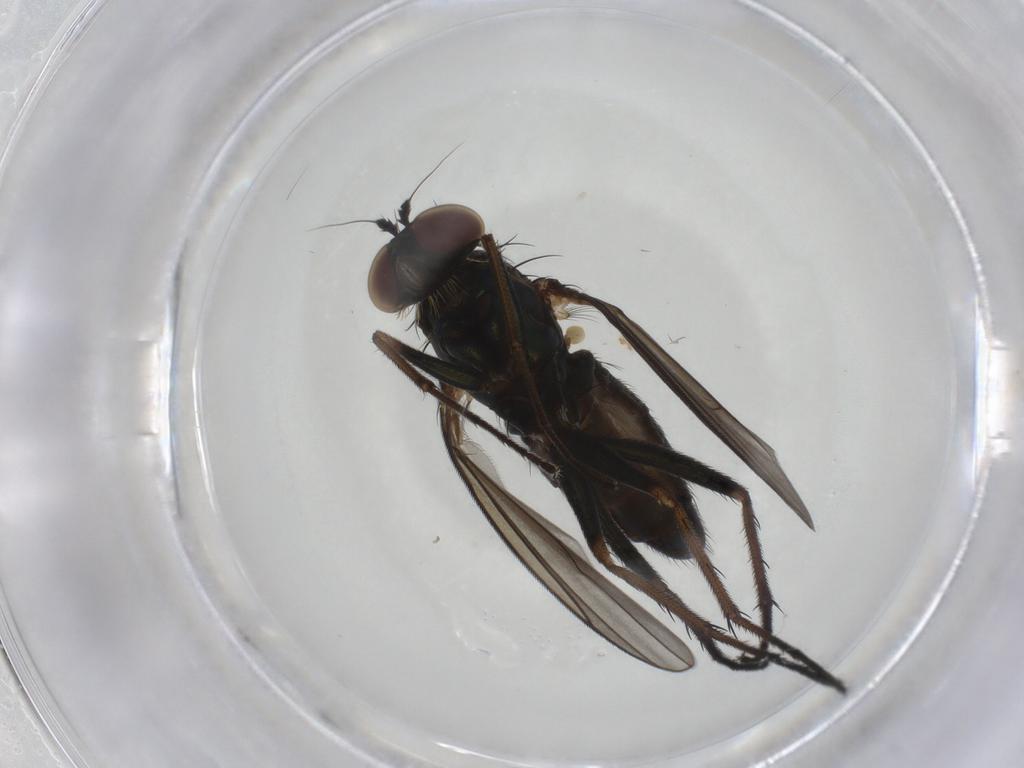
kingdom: Animalia
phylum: Arthropoda
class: Insecta
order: Diptera
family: Dolichopodidae
